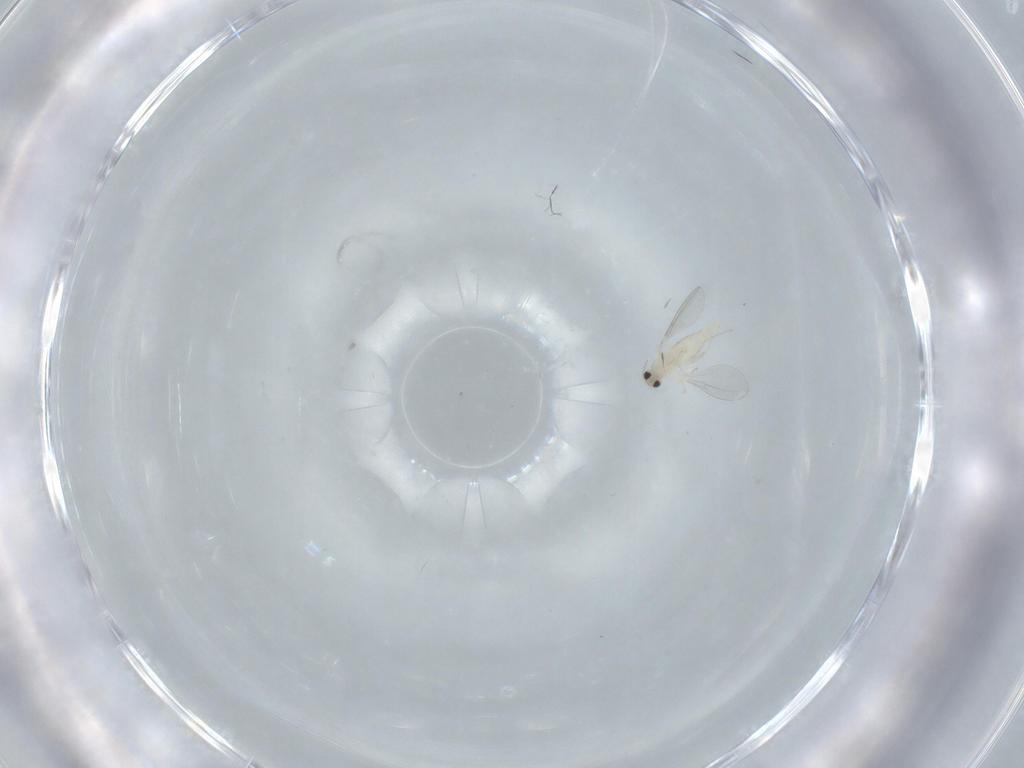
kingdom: Animalia
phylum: Arthropoda
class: Insecta
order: Diptera
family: Cecidomyiidae
